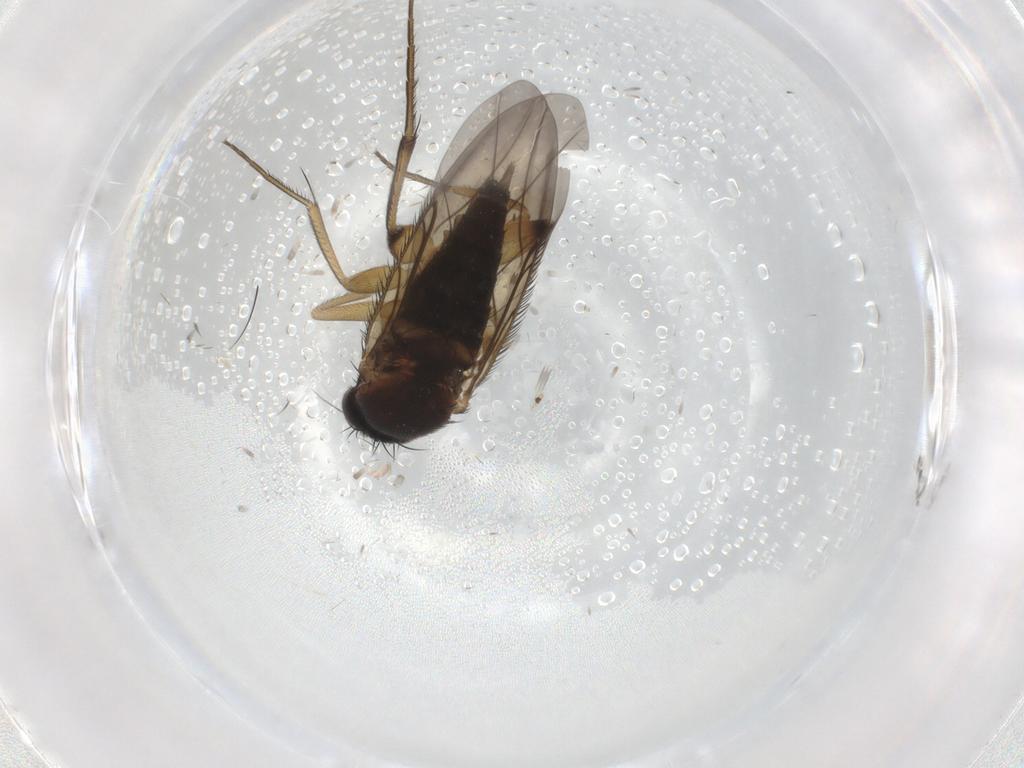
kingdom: Animalia
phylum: Arthropoda
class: Insecta
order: Diptera
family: Phoridae
